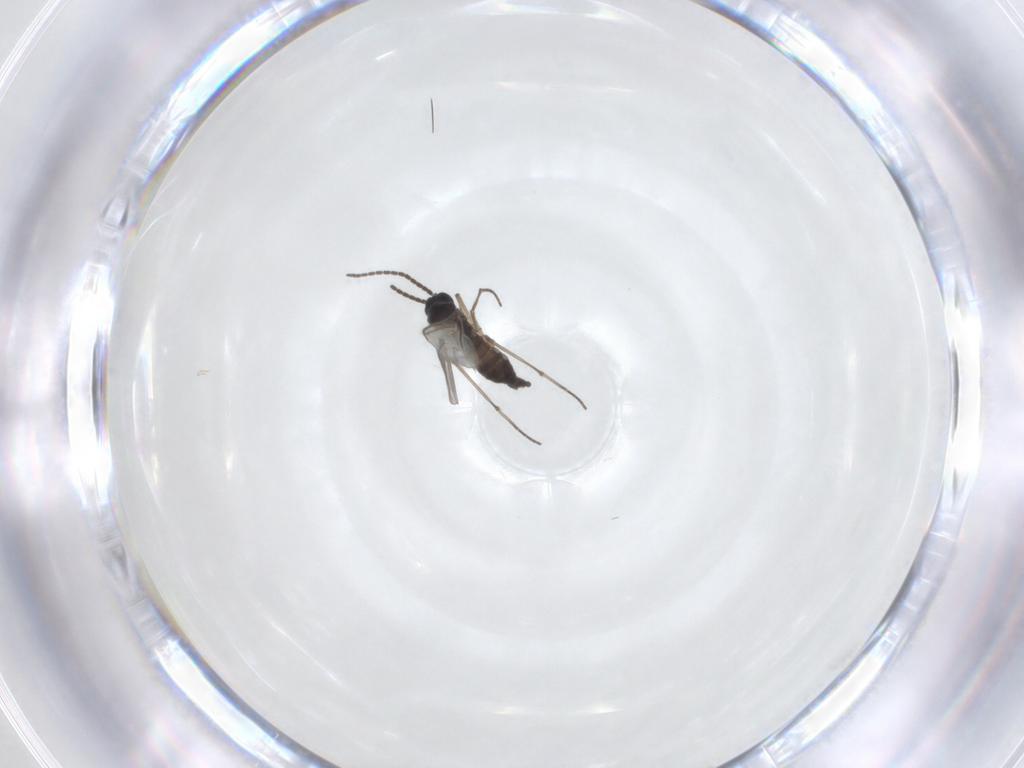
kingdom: Animalia
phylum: Arthropoda
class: Insecta
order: Diptera
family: Sciaridae
